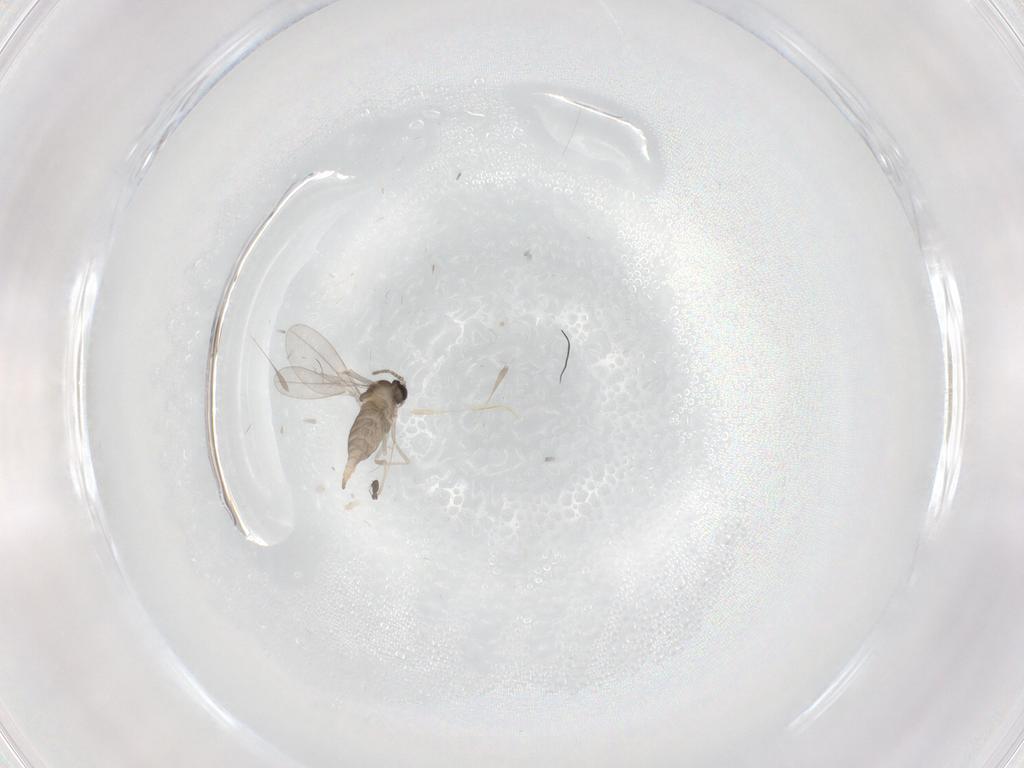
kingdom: Animalia
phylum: Arthropoda
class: Insecta
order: Diptera
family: Cecidomyiidae
